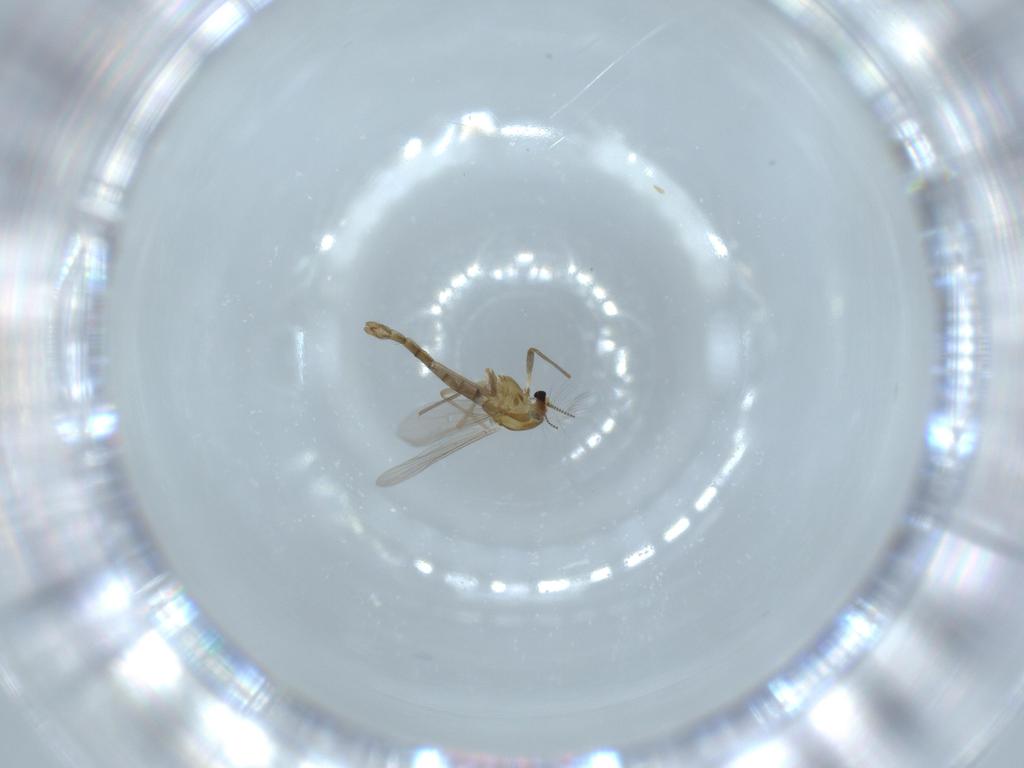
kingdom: Animalia
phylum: Arthropoda
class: Insecta
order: Diptera
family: Chironomidae
